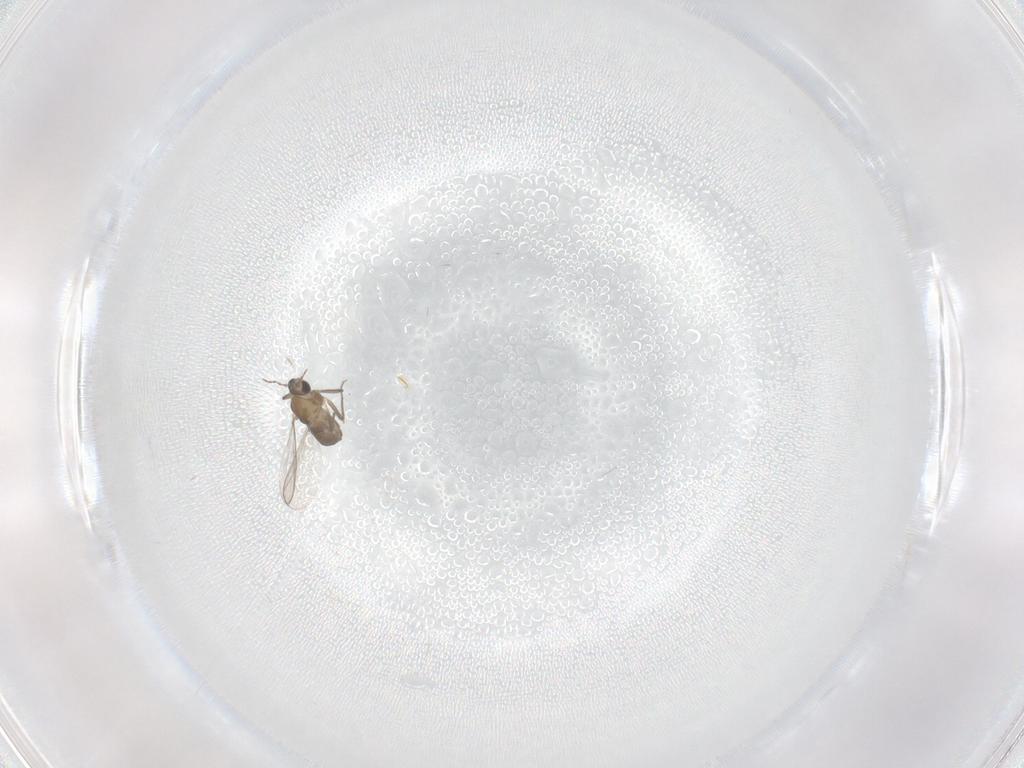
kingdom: Animalia
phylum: Arthropoda
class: Insecta
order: Diptera
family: Chironomidae
